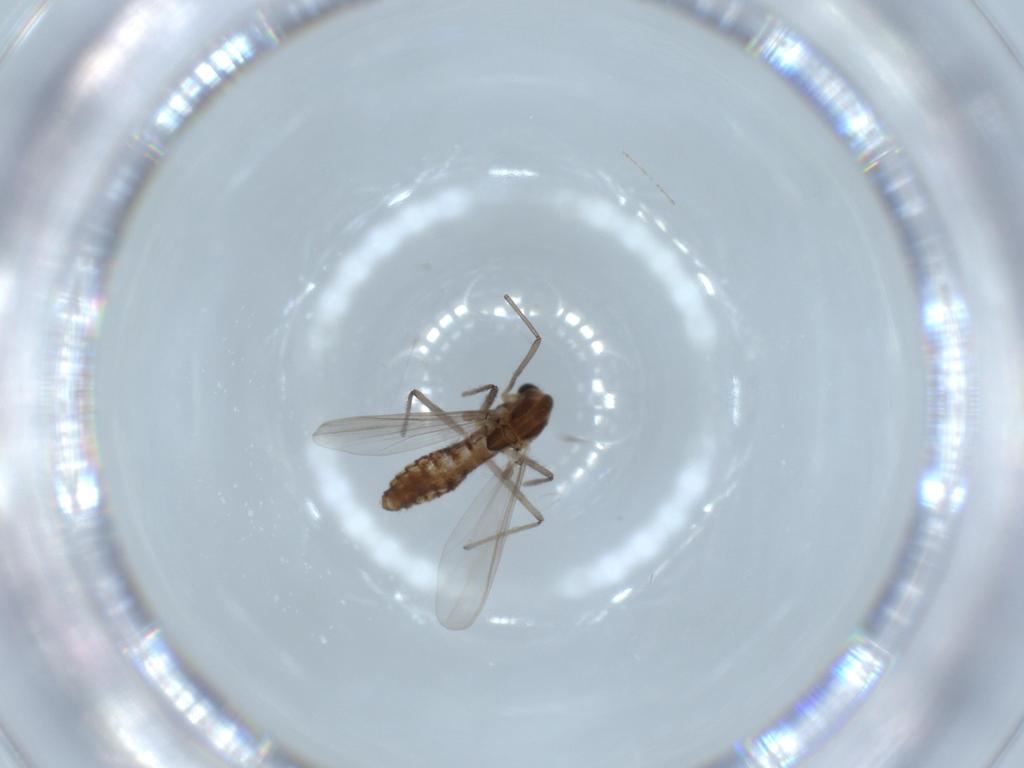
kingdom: Animalia
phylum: Arthropoda
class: Insecta
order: Diptera
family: Chironomidae
